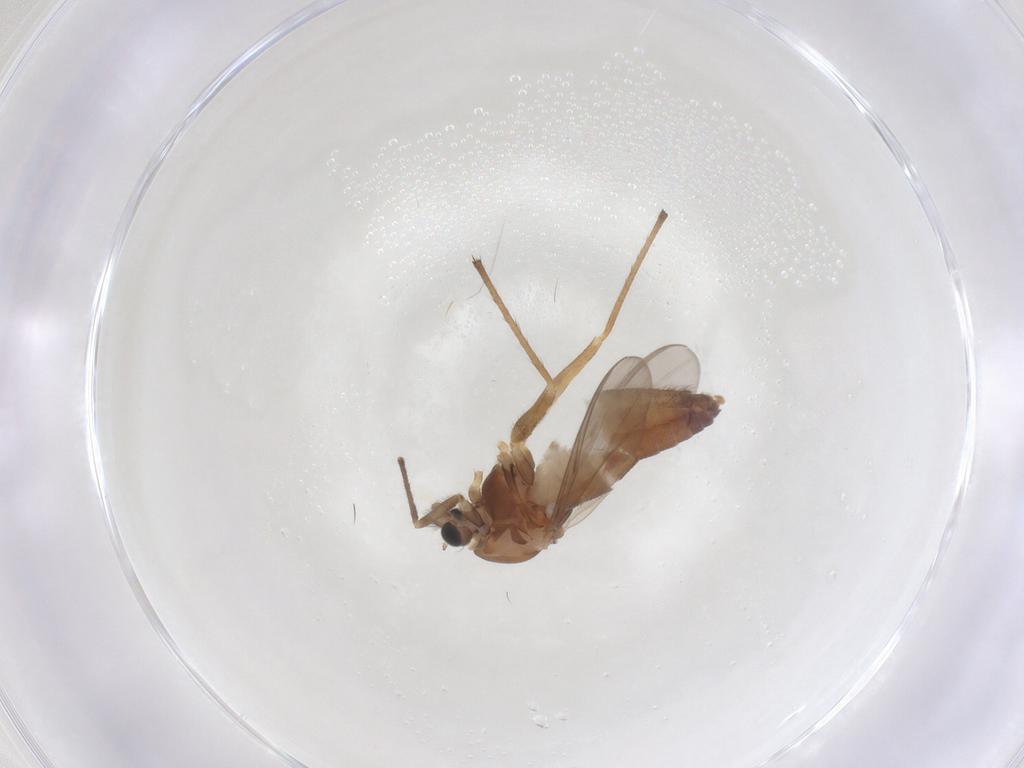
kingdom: Animalia
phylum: Arthropoda
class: Insecta
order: Diptera
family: Chironomidae
